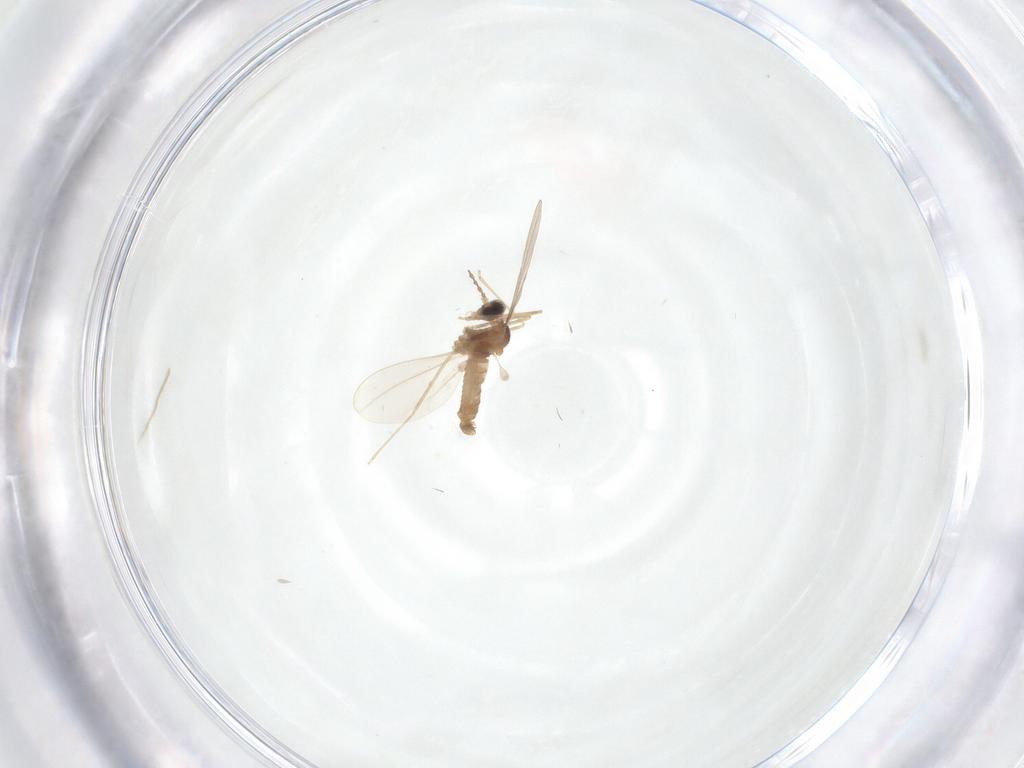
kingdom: Animalia
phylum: Arthropoda
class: Insecta
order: Diptera
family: Cecidomyiidae
